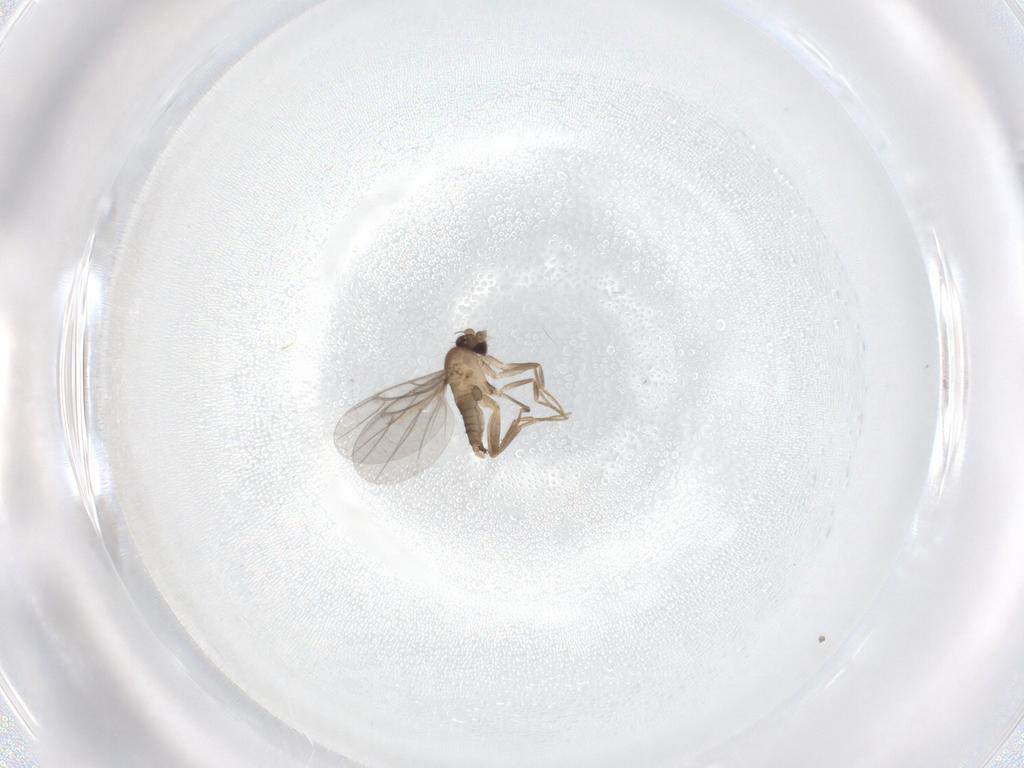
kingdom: Animalia
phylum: Arthropoda
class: Insecta
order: Diptera
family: Chironomidae
